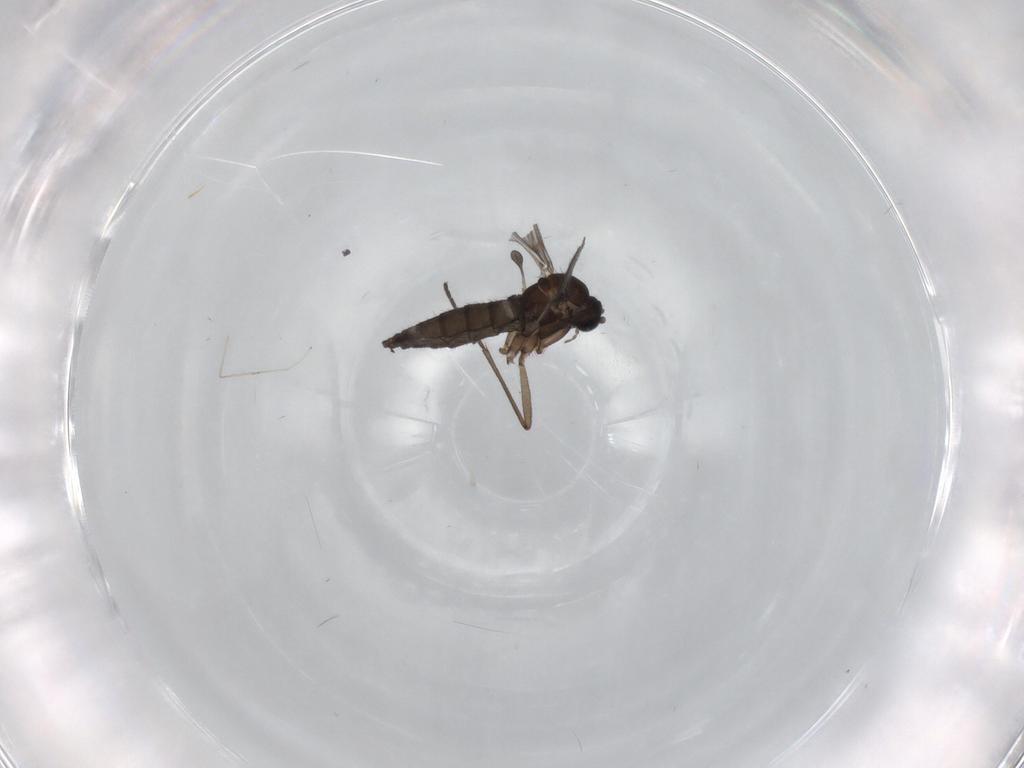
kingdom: Animalia
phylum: Arthropoda
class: Insecta
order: Diptera
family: Sciaridae
